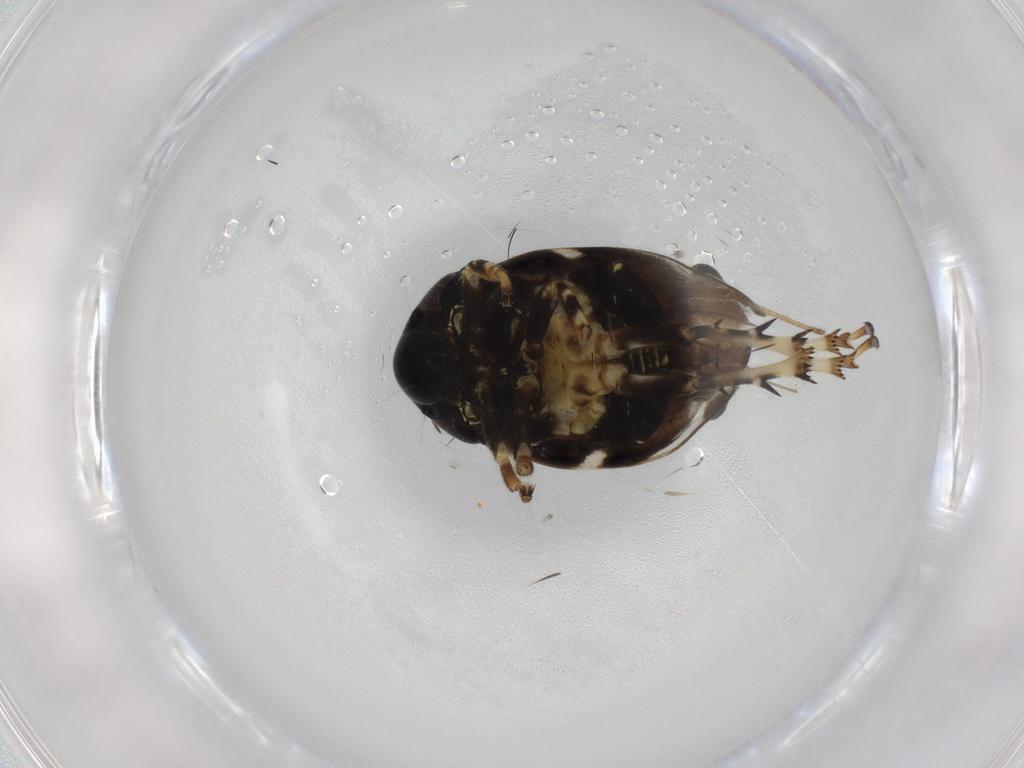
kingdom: Animalia
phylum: Arthropoda
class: Insecta
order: Hemiptera
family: Clastopteridae
